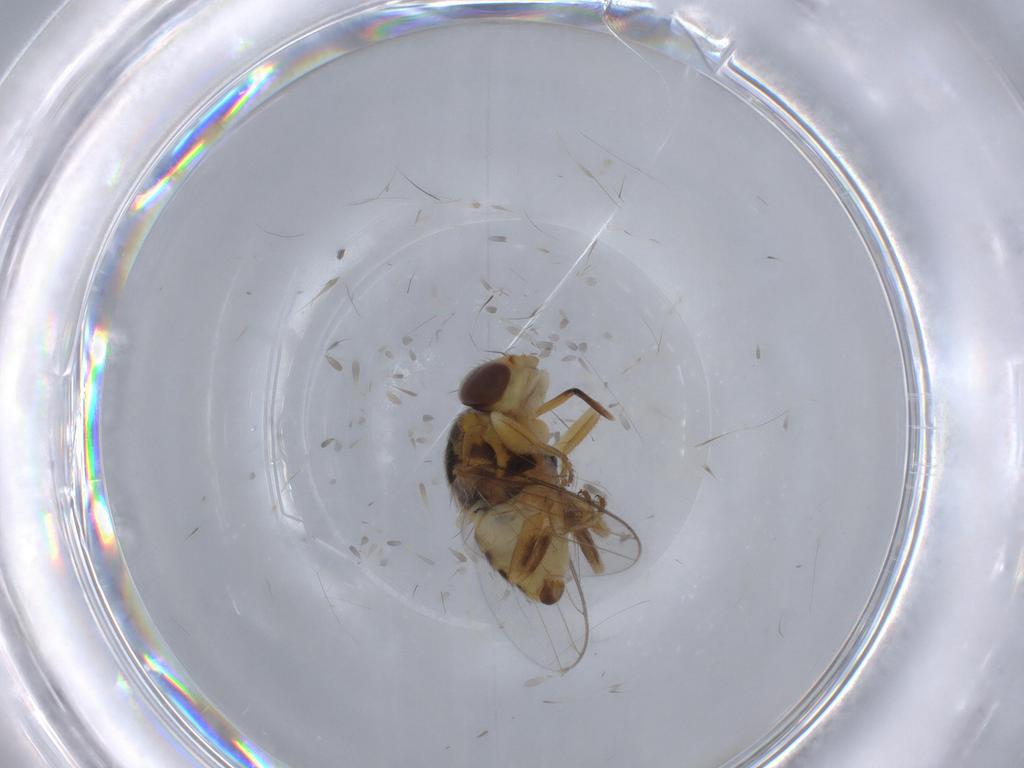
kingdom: Animalia
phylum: Arthropoda
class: Insecta
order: Diptera
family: Chloropidae
